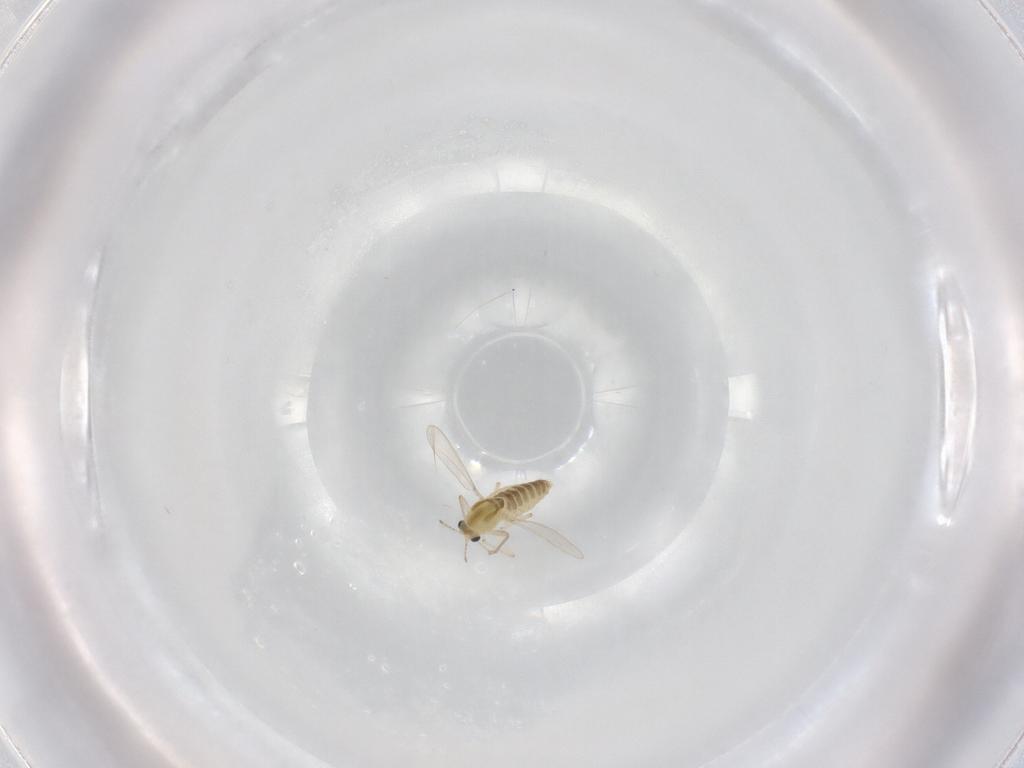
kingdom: Animalia
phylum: Arthropoda
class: Insecta
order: Diptera
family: Chironomidae
